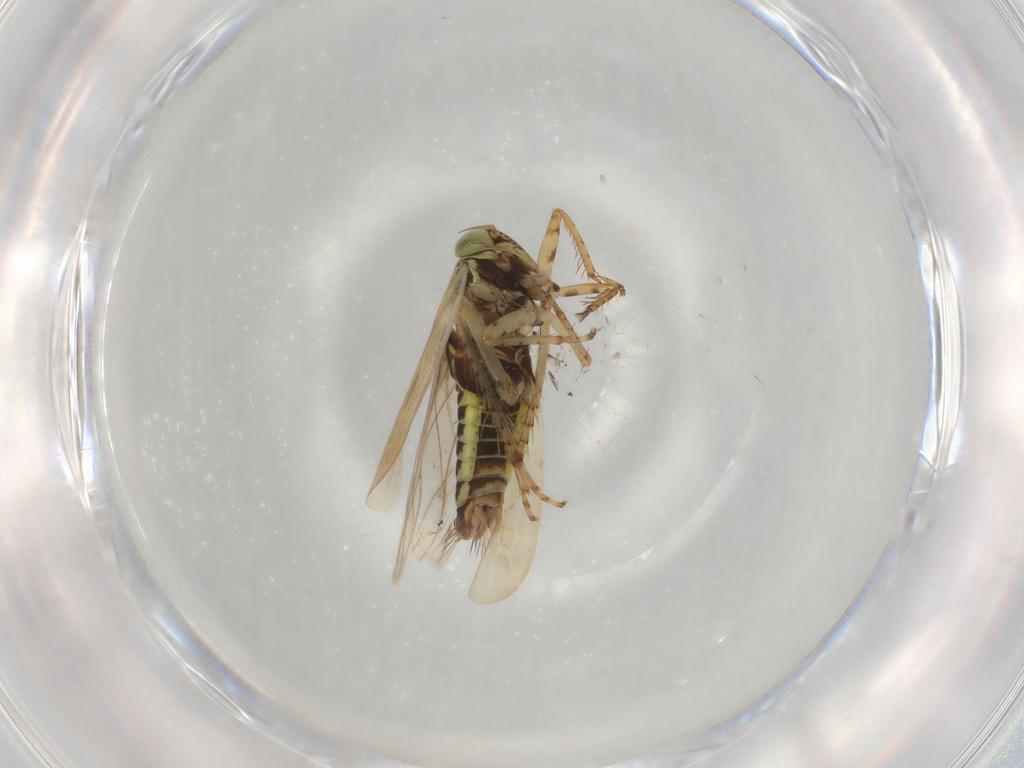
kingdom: Animalia
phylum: Arthropoda
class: Insecta
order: Hemiptera
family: Cicadellidae
